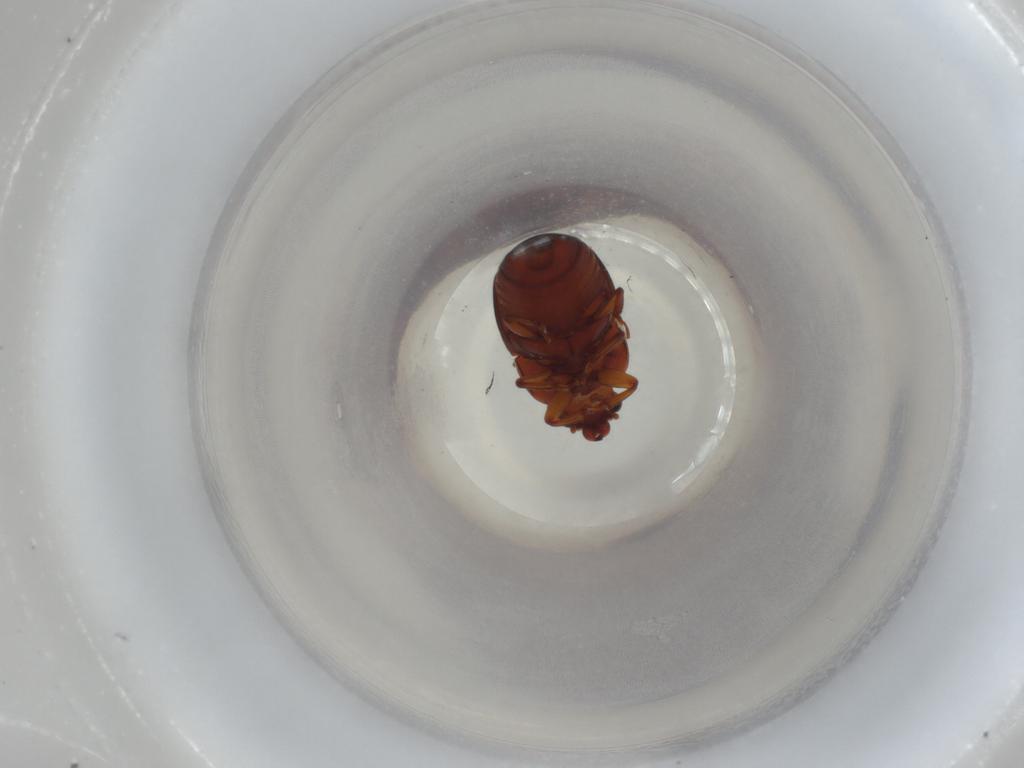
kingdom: Animalia
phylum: Arthropoda
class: Insecta
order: Coleoptera
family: Nitidulidae
